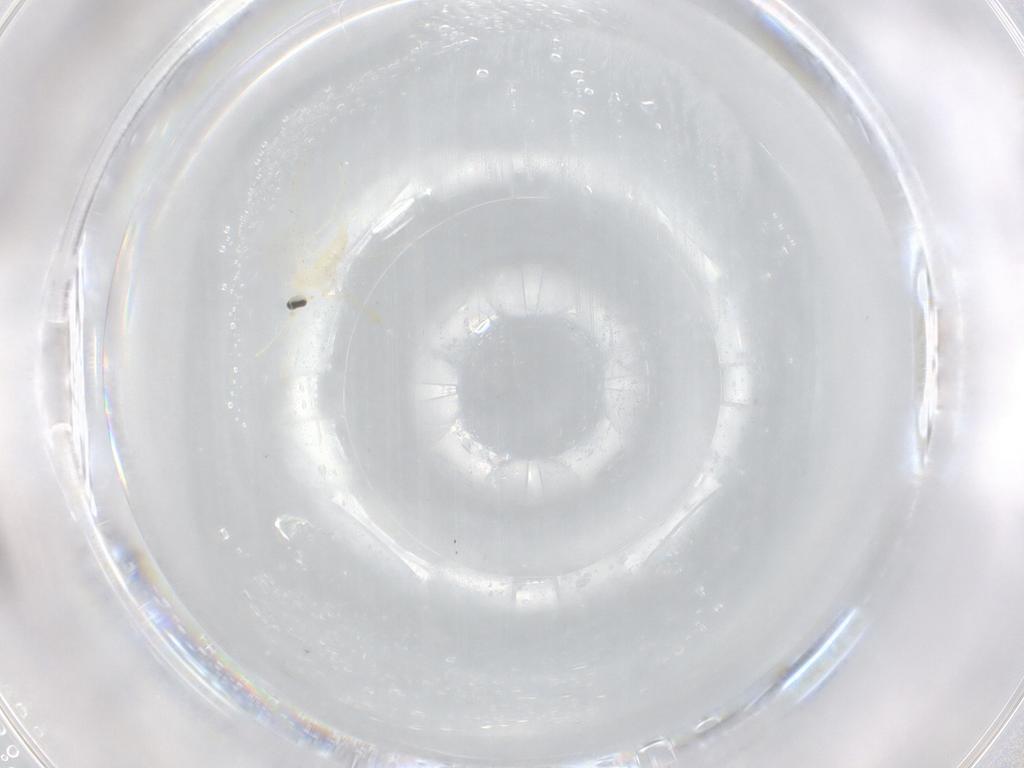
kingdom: Animalia
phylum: Arthropoda
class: Insecta
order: Diptera
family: Cecidomyiidae
